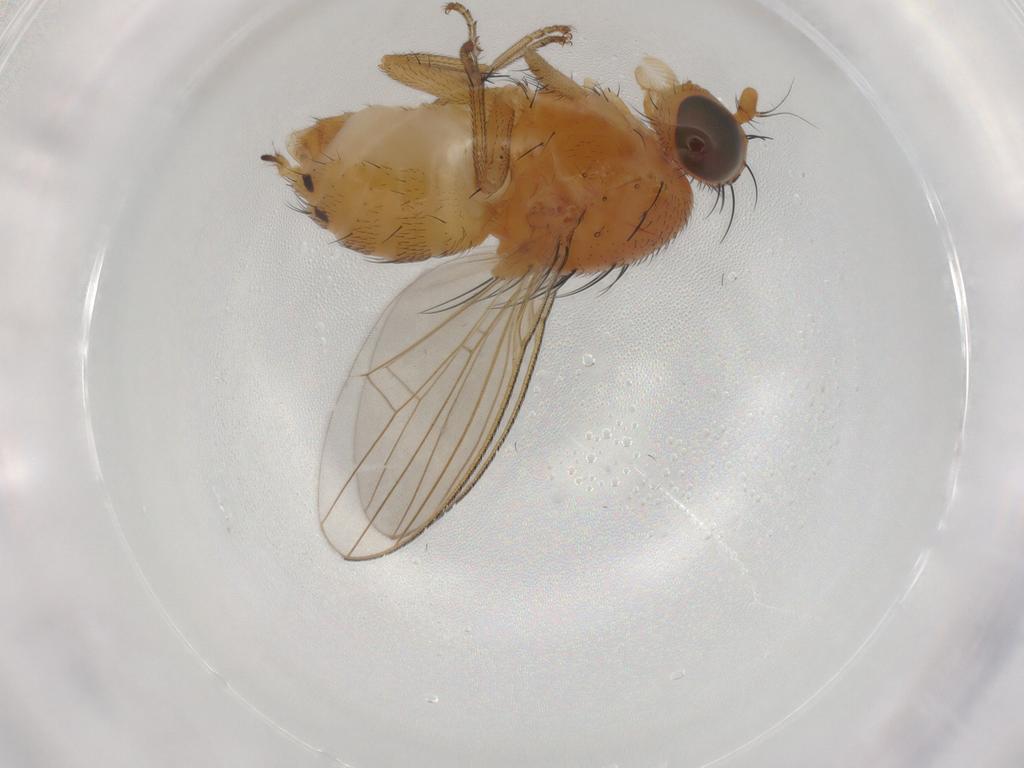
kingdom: Animalia
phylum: Arthropoda
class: Insecta
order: Diptera
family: Lauxaniidae
